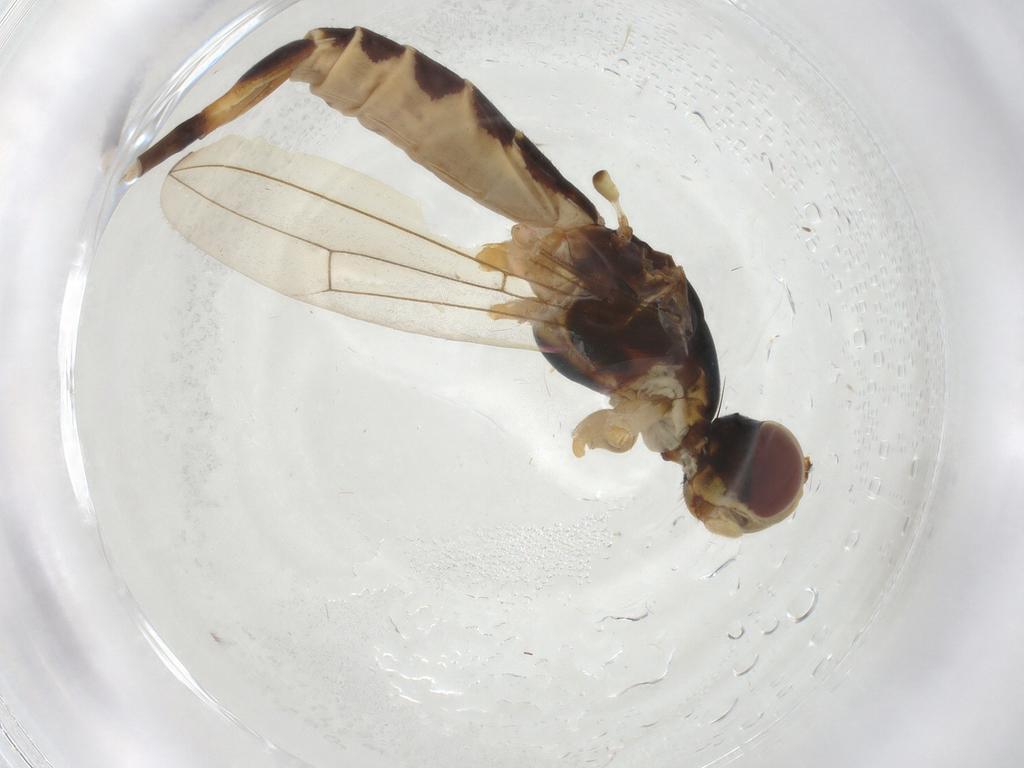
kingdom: Animalia
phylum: Arthropoda
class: Insecta
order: Diptera
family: Micropezidae
